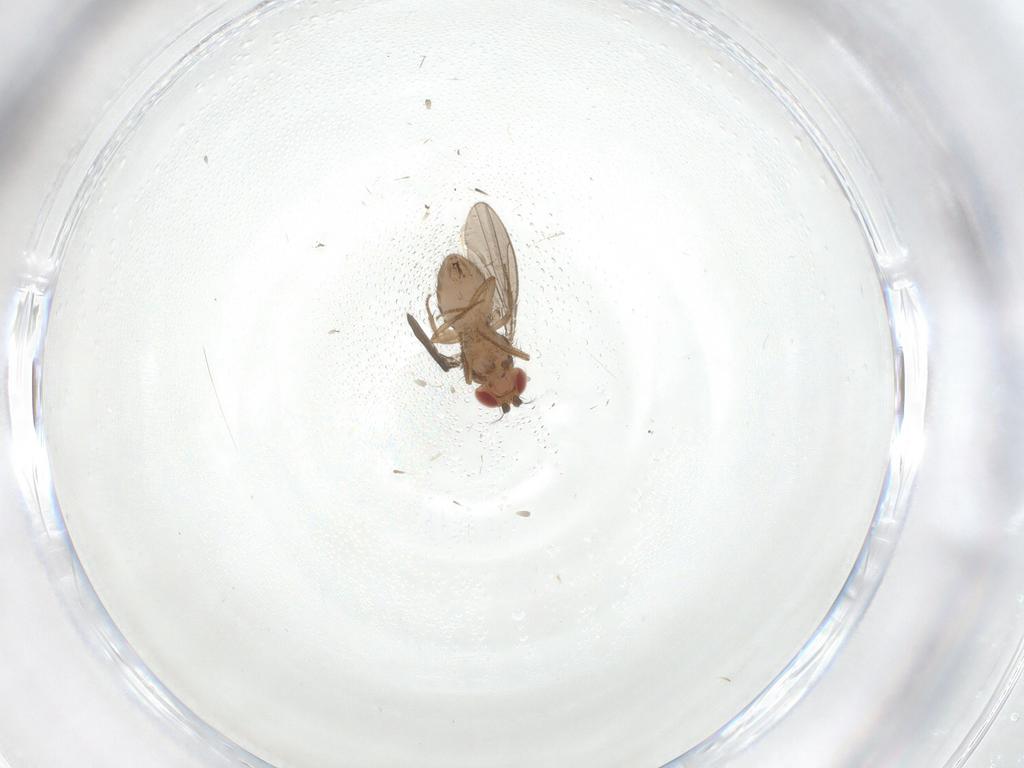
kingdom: Animalia
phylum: Arthropoda
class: Insecta
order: Diptera
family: Drosophilidae
